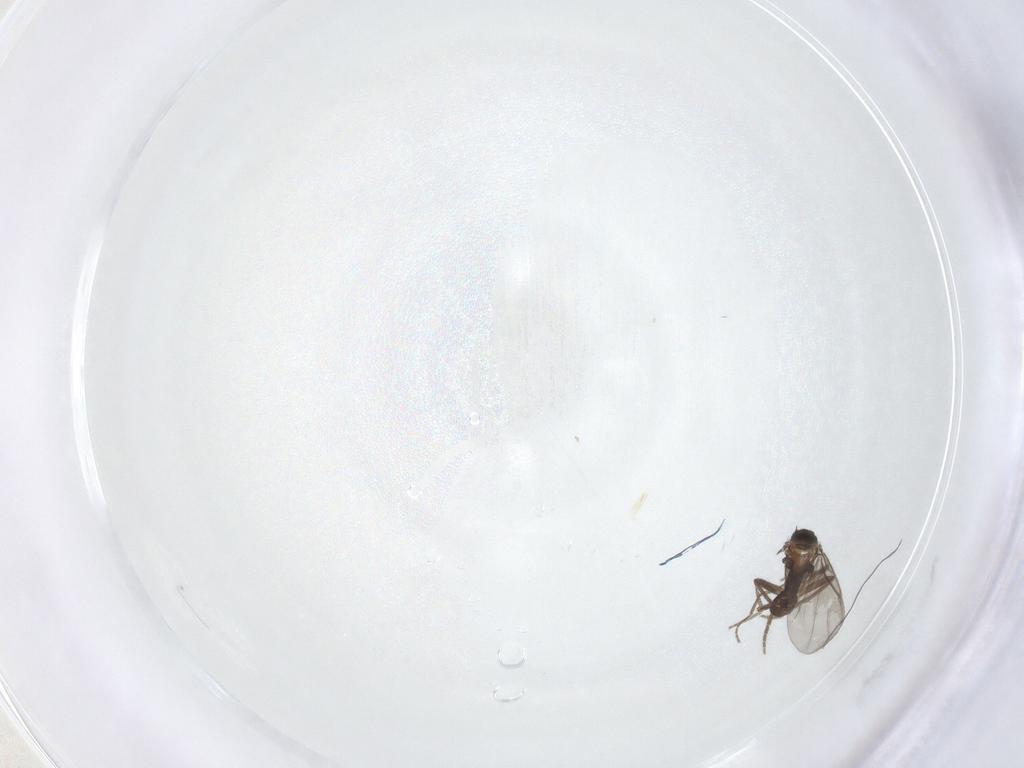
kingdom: Animalia
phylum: Arthropoda
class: Insecta
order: Diptera
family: Phoridae
